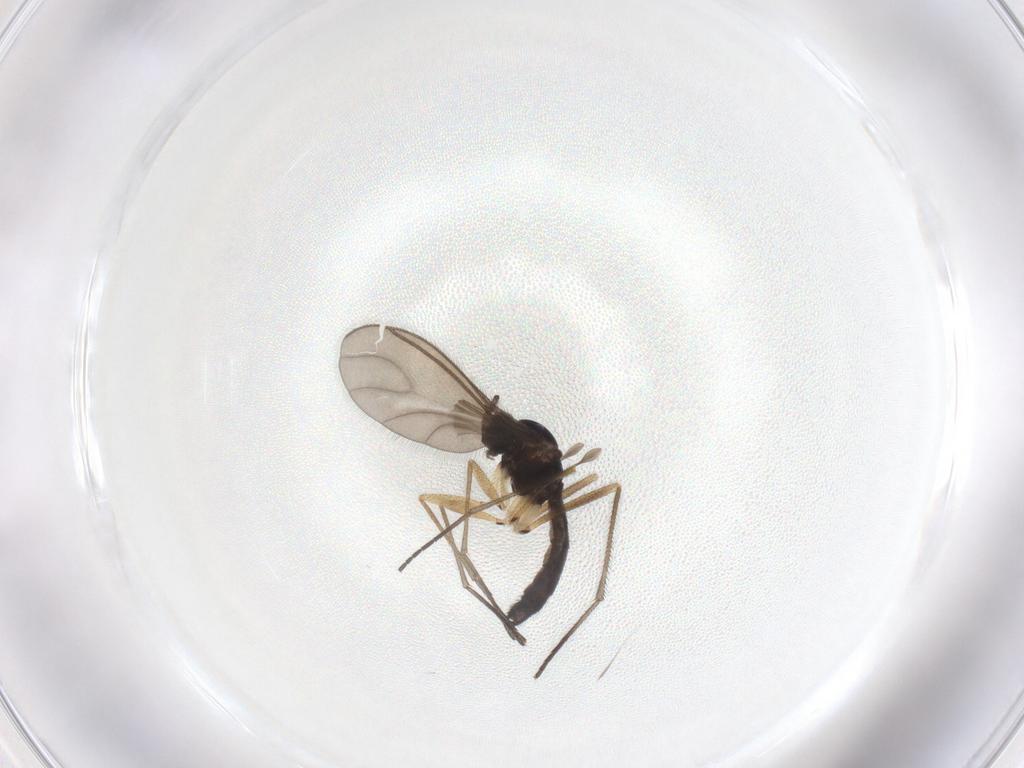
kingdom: Animalia
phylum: Arthropoda
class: Insecta
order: Diptera
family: Sciaridae
